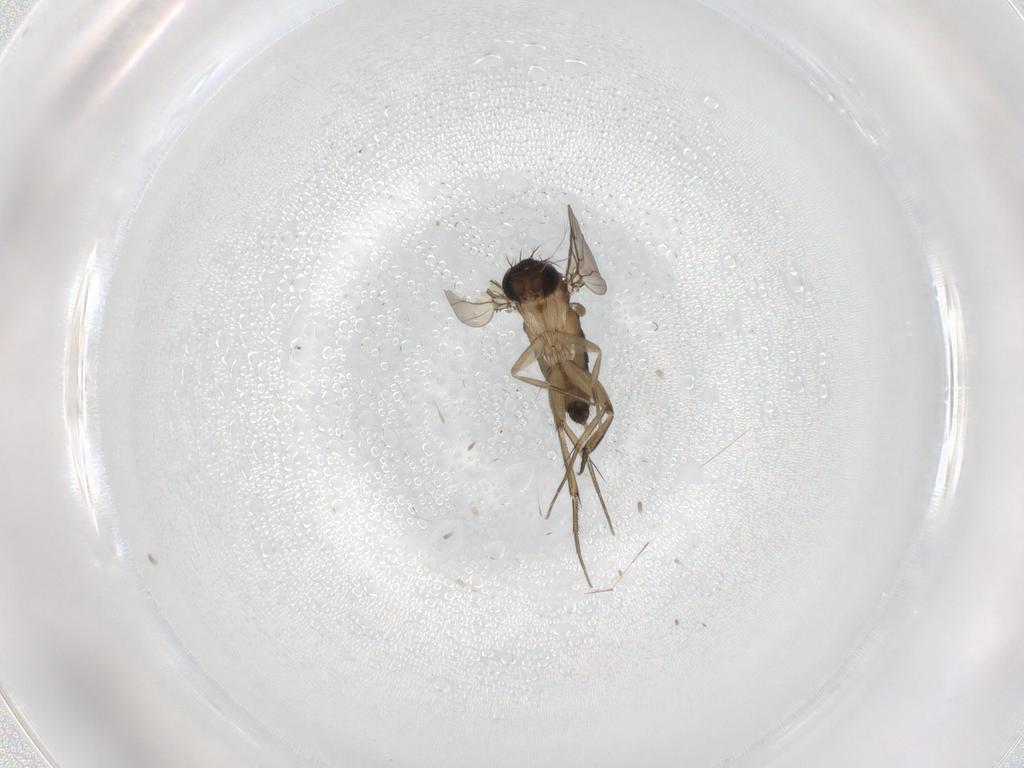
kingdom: Animalia
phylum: Arthropoda
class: Insecta
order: Diptera
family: Phoridae
